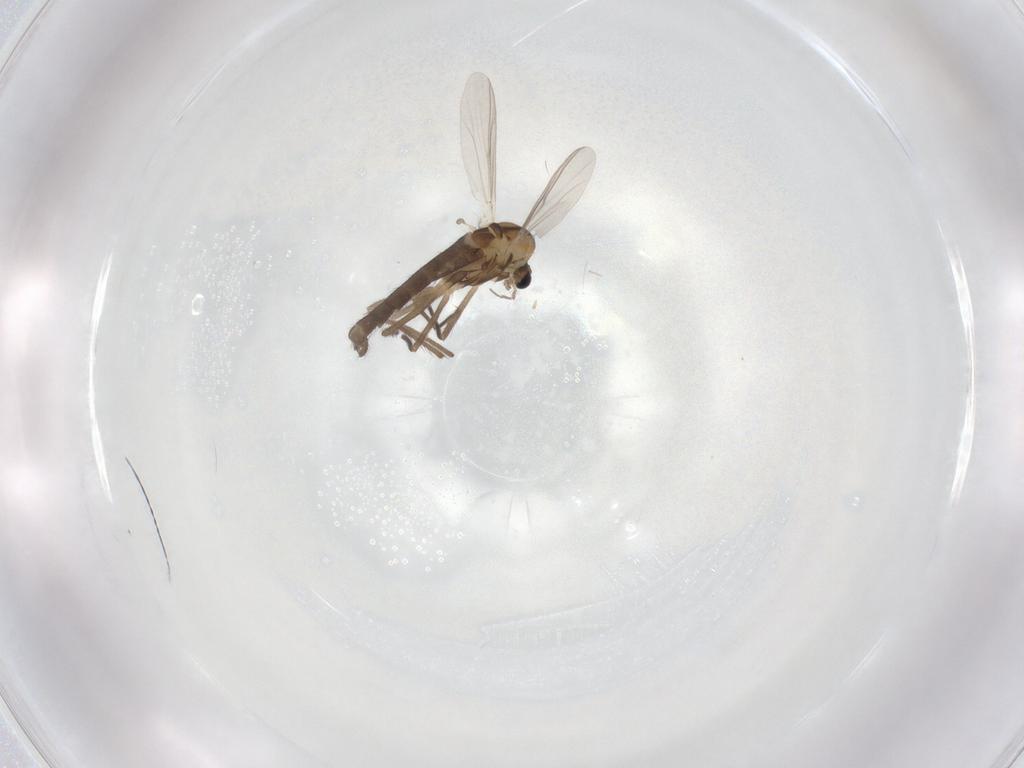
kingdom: Animalia
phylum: Arthropoda
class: Insecta
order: Diptera
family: Chironomidae
